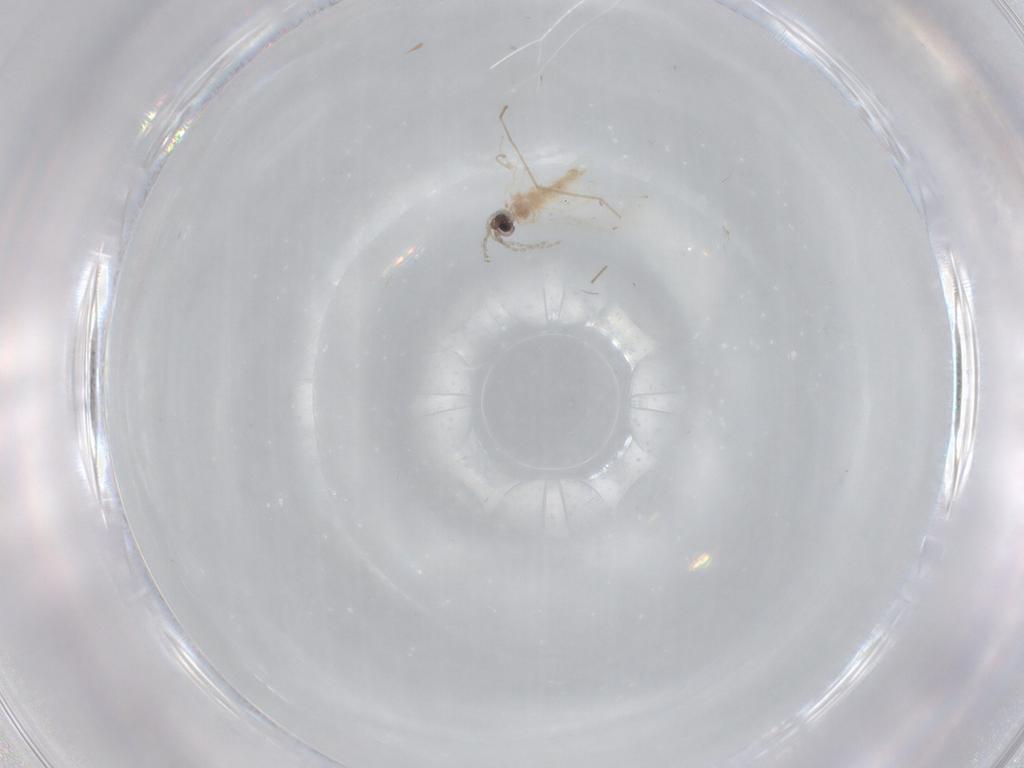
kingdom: Animalia
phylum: Arthropoda
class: Insecta
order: Diptera
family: Cecidomyiidae
